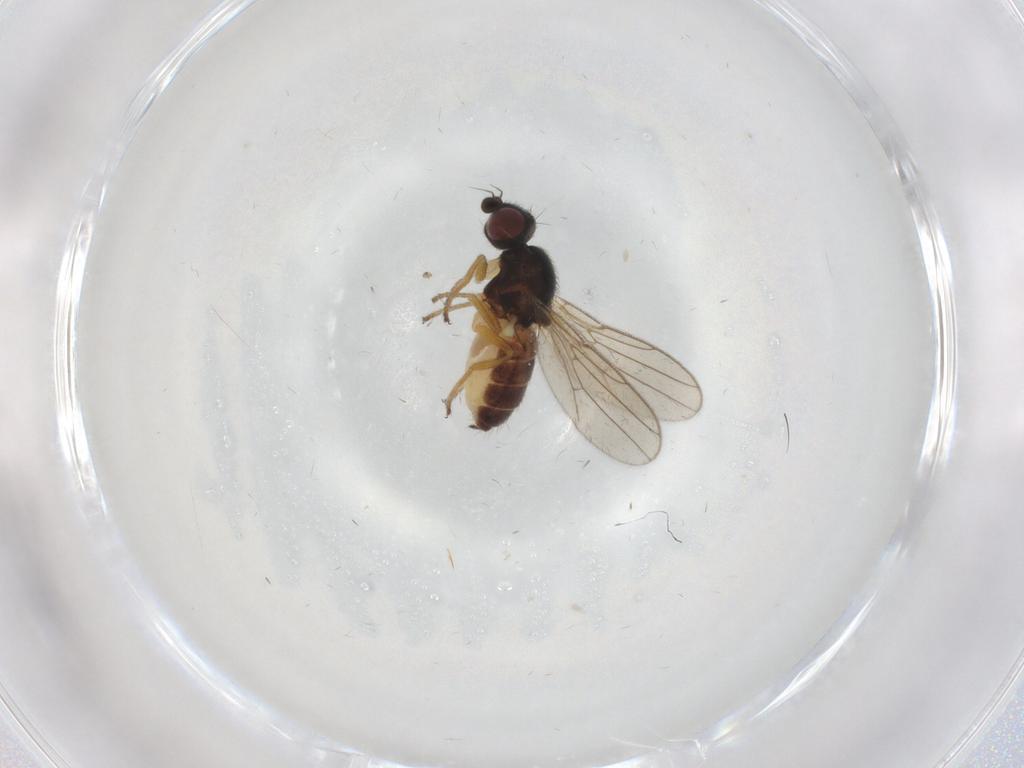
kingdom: Animalia
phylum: Arthropoda
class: Insecta
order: Diptera
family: Chloropidae
